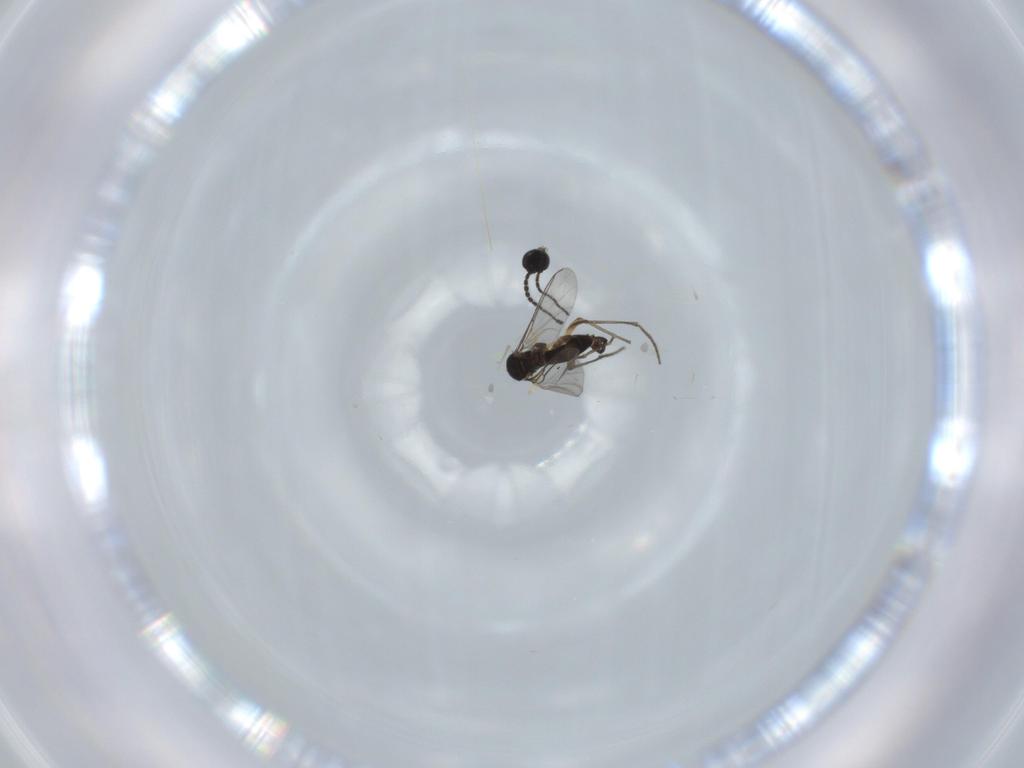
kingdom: Animalia
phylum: Arthropoda
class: Insecta
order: Diptera
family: Sciaridae
